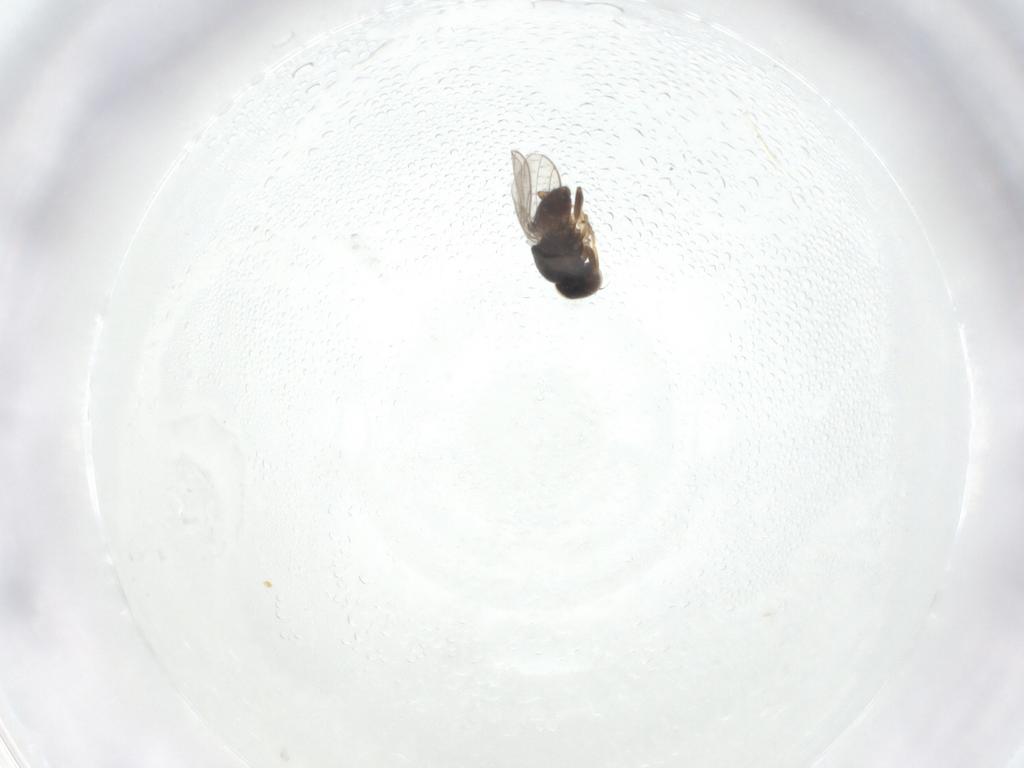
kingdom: Animalia
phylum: Arthropoda
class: Insecta
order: Diptera
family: Chloropidae
